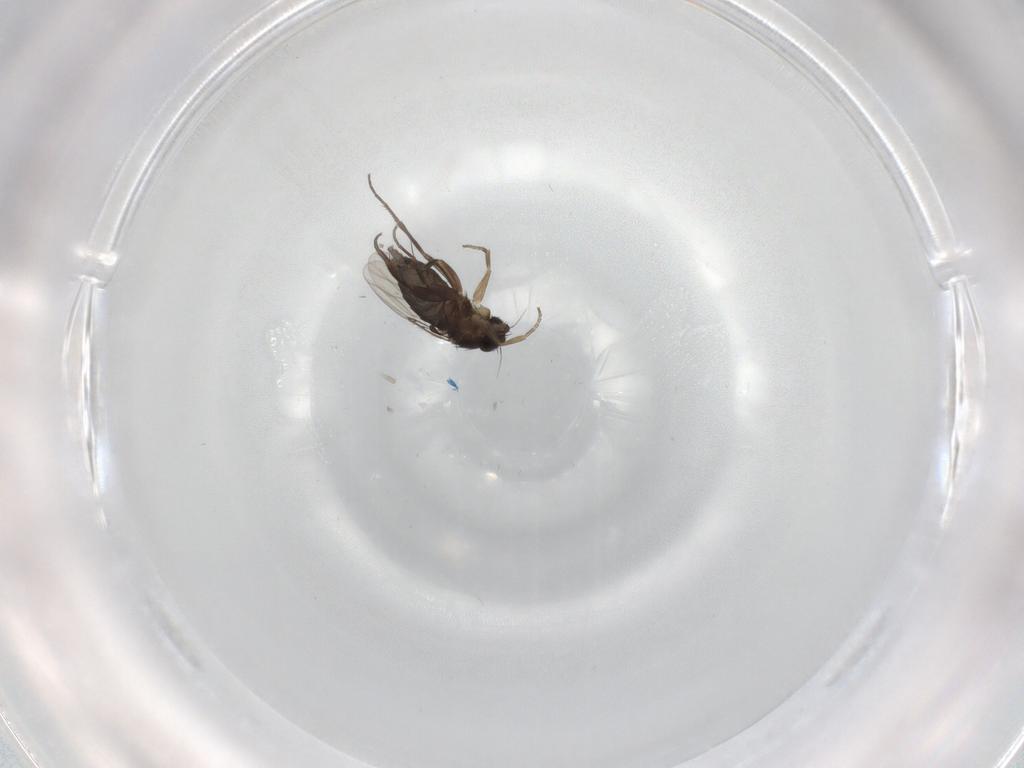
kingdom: Animalia
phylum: Arthropoda
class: Insecta
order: Diptera
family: Phoridae
